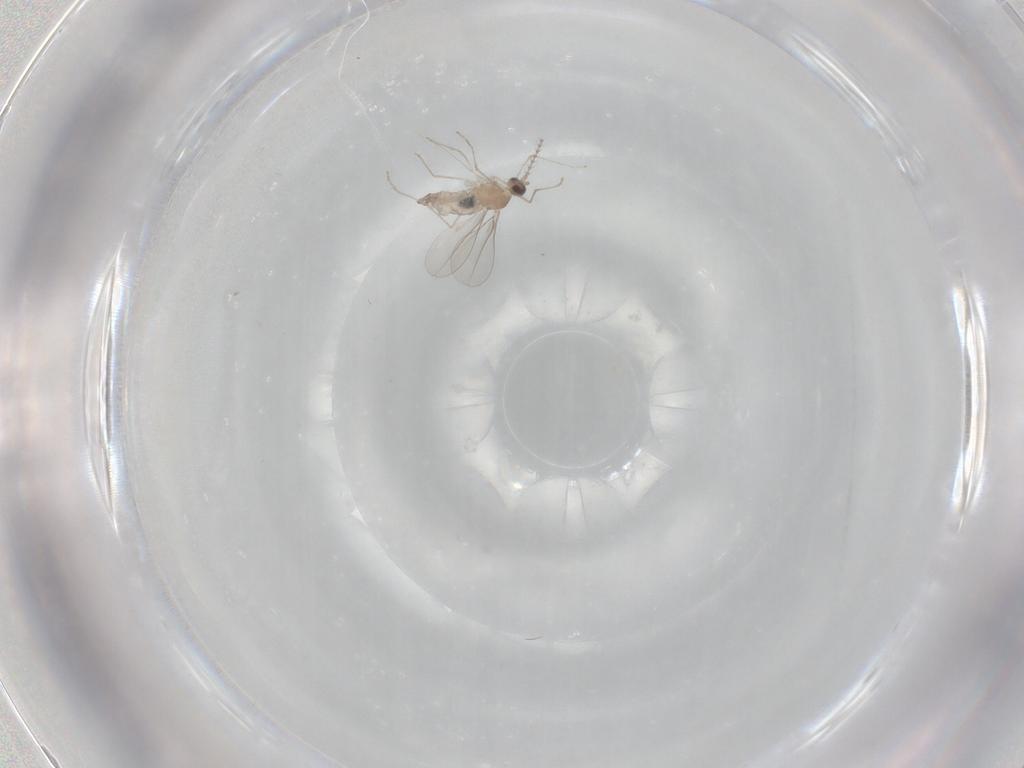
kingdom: Animalia
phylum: Arthropoda
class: Insecta
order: Diptera
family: Cecidomyiidae
